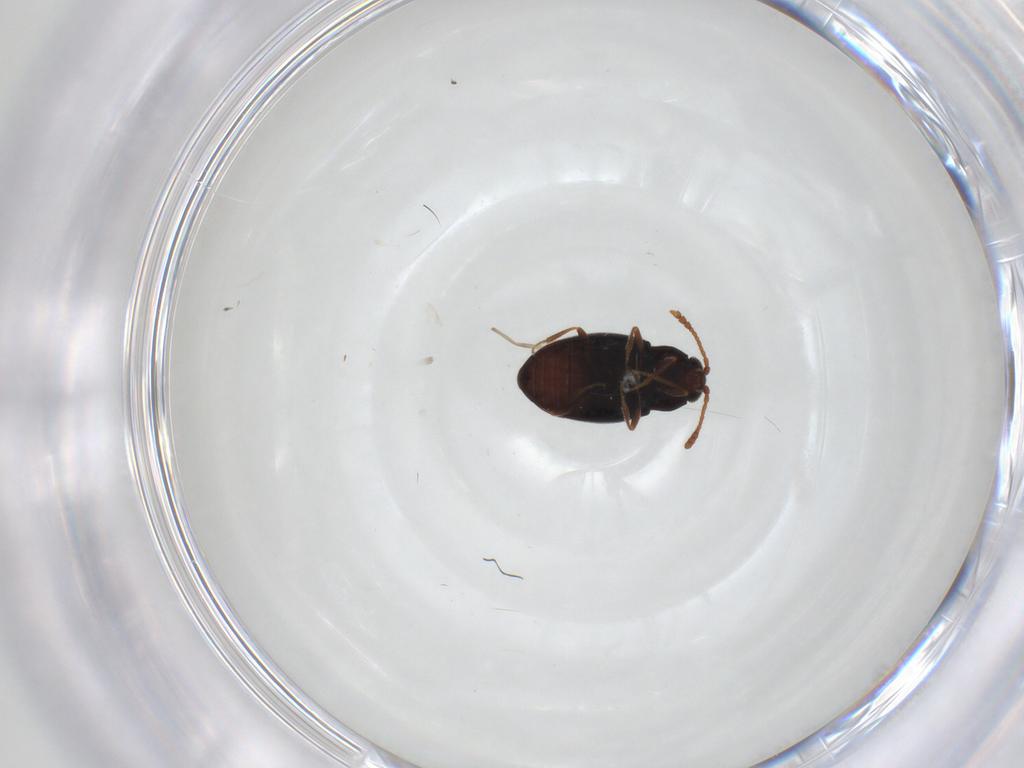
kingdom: Animalia
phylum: Arthropoda
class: Insecta
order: Coleoptera
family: Cryptophagidae
